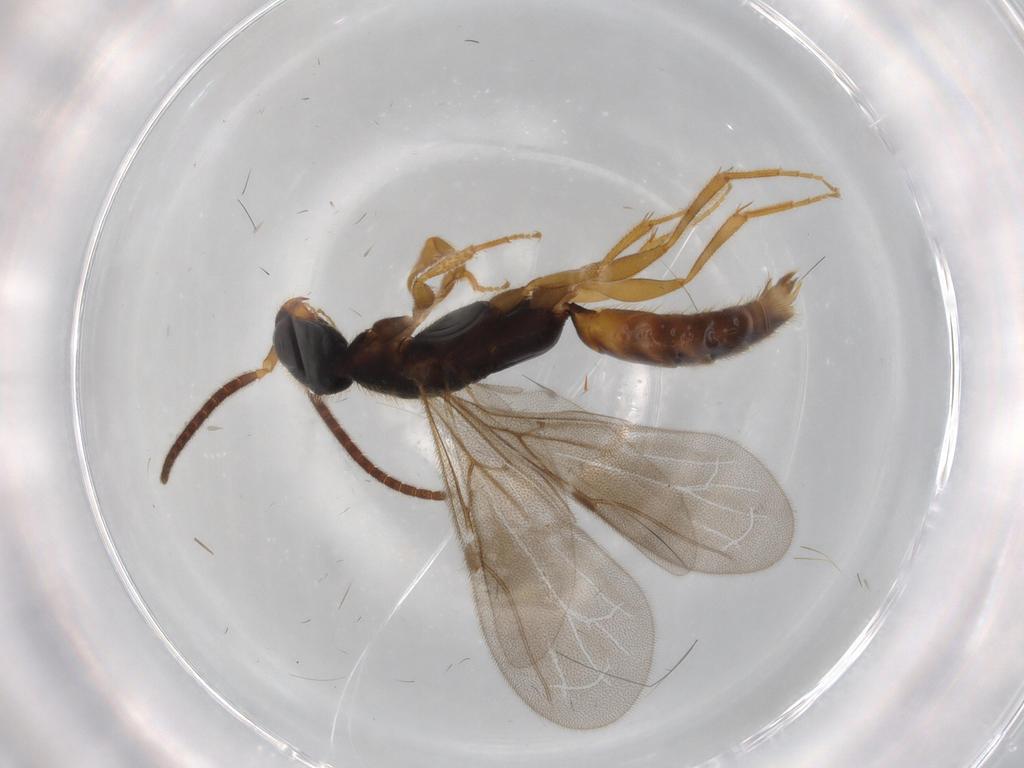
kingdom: Animalia
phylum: Arthropoda
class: Insecta
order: Hymenoptera
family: Bethylidae
